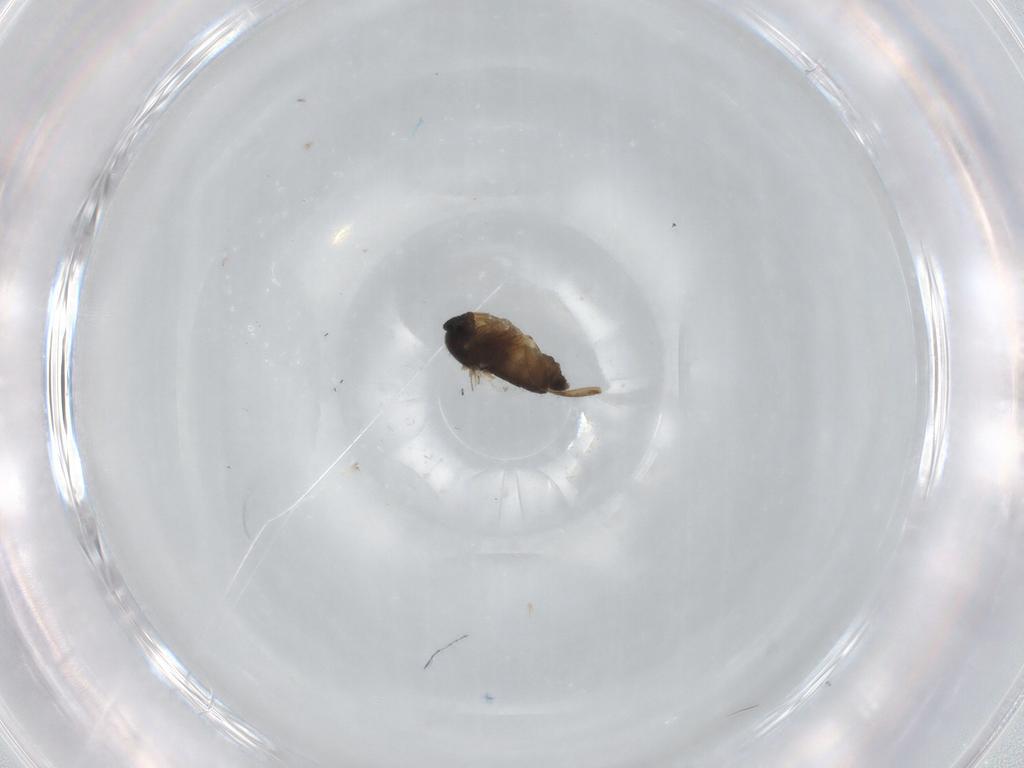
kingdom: Animalia
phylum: Arthropoda
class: Insecta
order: Diptera
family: Phoridae
